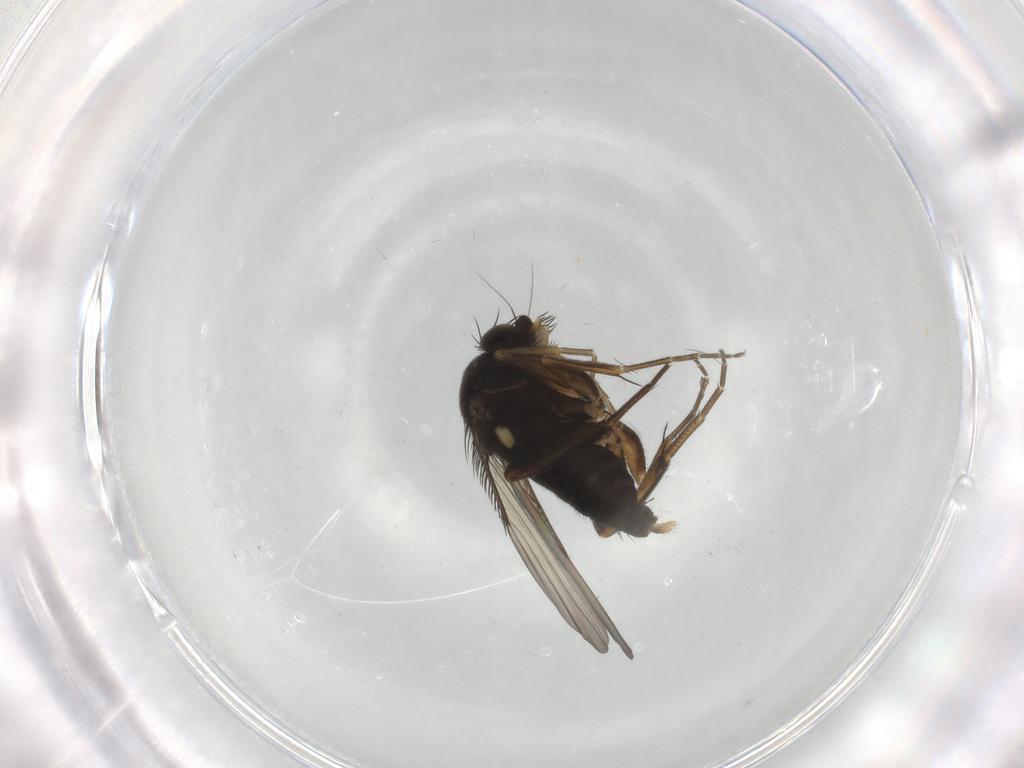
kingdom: Animalia
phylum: Arthropoda
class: Insecta
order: Diptera
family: Phoridae
